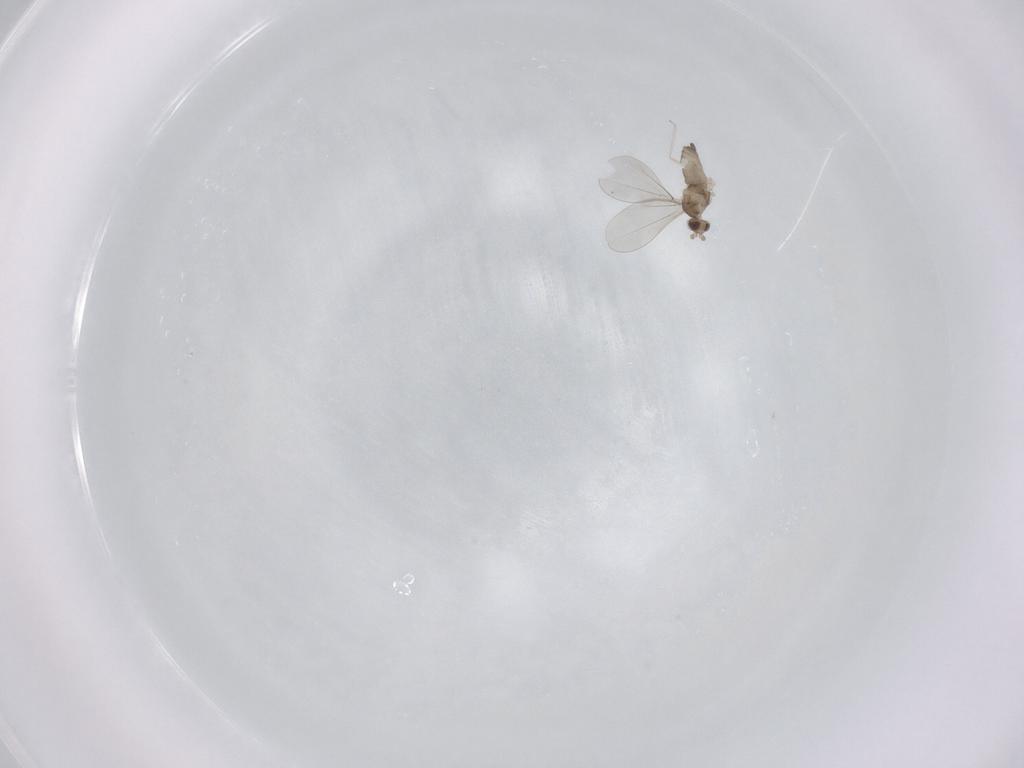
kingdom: Animalia
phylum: Arthropoda
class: Insecta
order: Diptera
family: Cecidomyiidae
